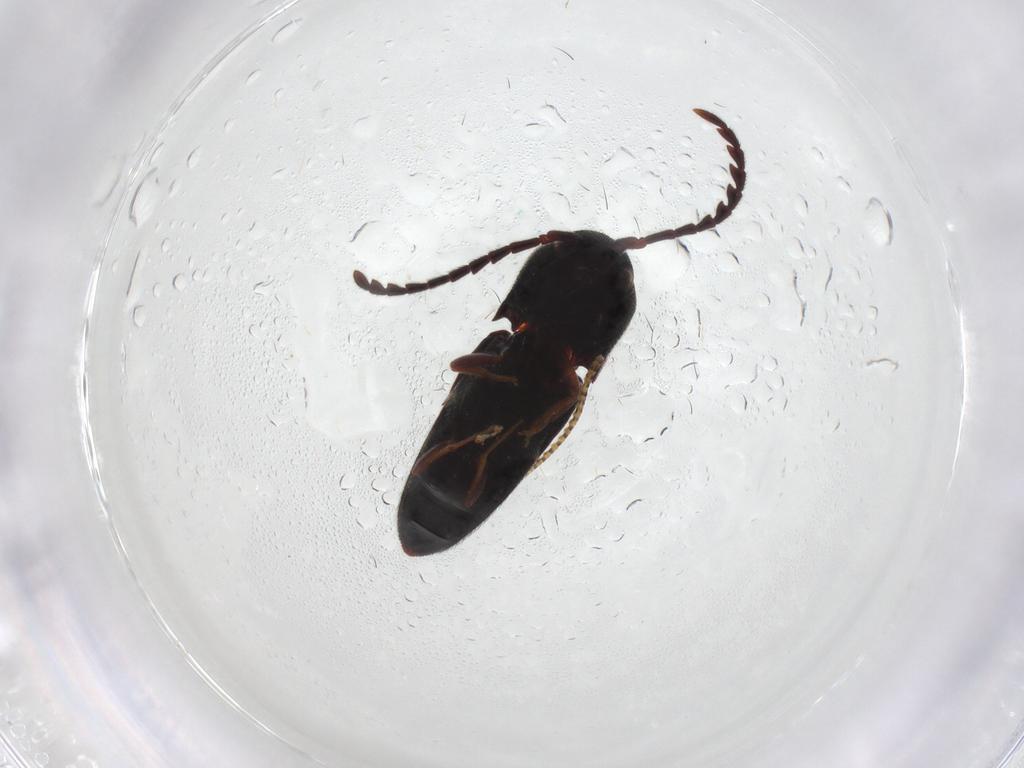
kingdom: Animalia
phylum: Arthropoda
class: Insecta
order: Coleoptera
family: Eucnemidae
